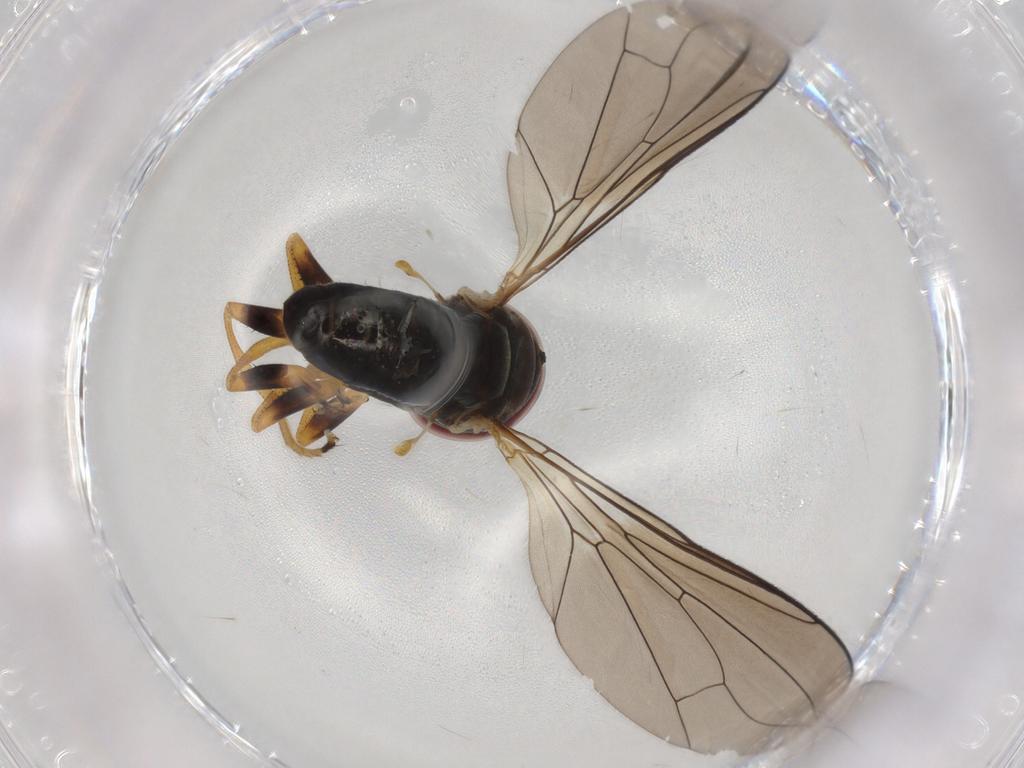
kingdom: Animalia
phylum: Arthropoda
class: Insecta
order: Diptera
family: Pipunculidae
